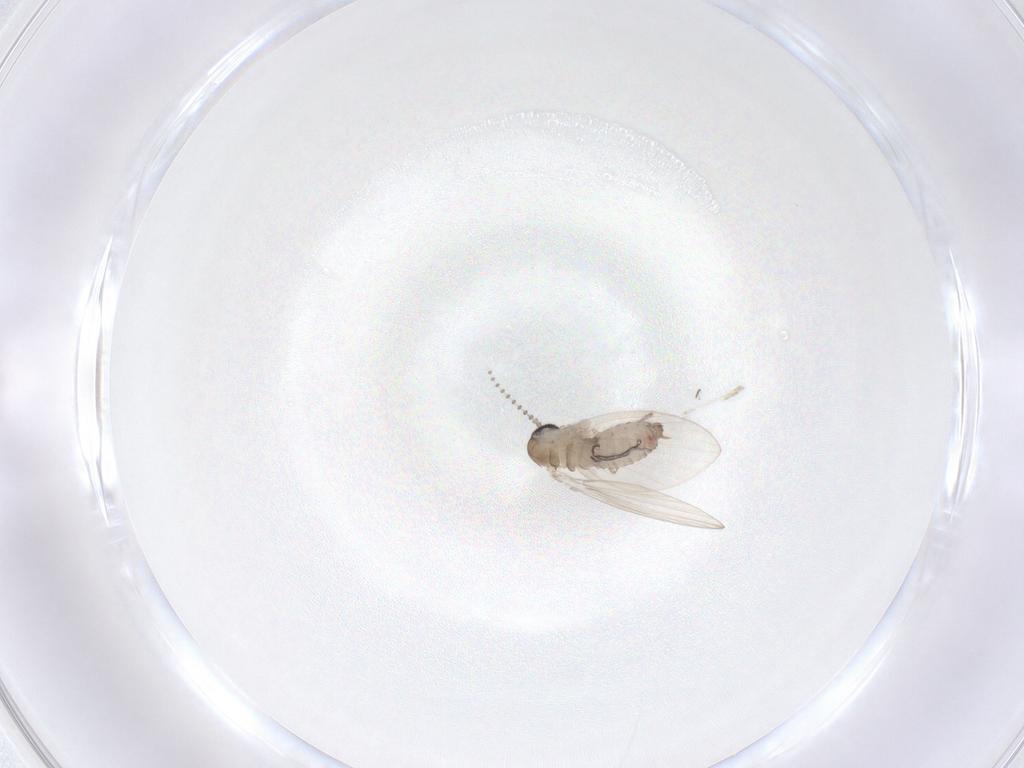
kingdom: Animalia
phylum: Arthropoda
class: Insecta
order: Diptera
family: Psychodidae
